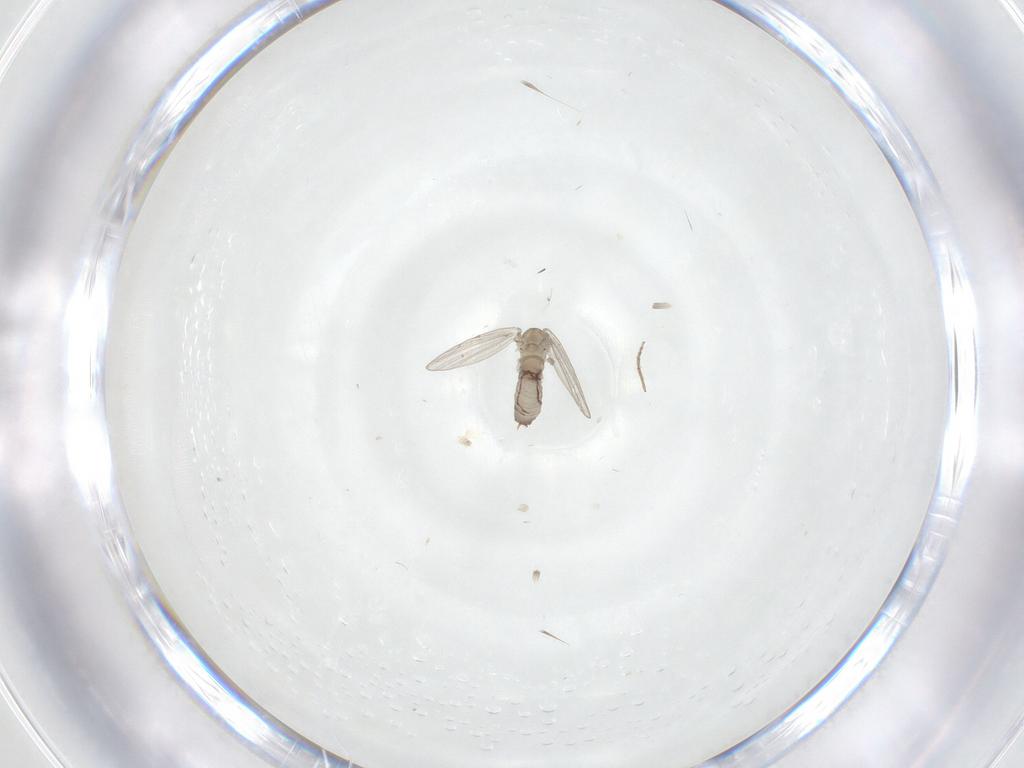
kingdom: Animalia
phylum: Arthropoda
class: Insecta
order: Diptera
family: Psychodidae
